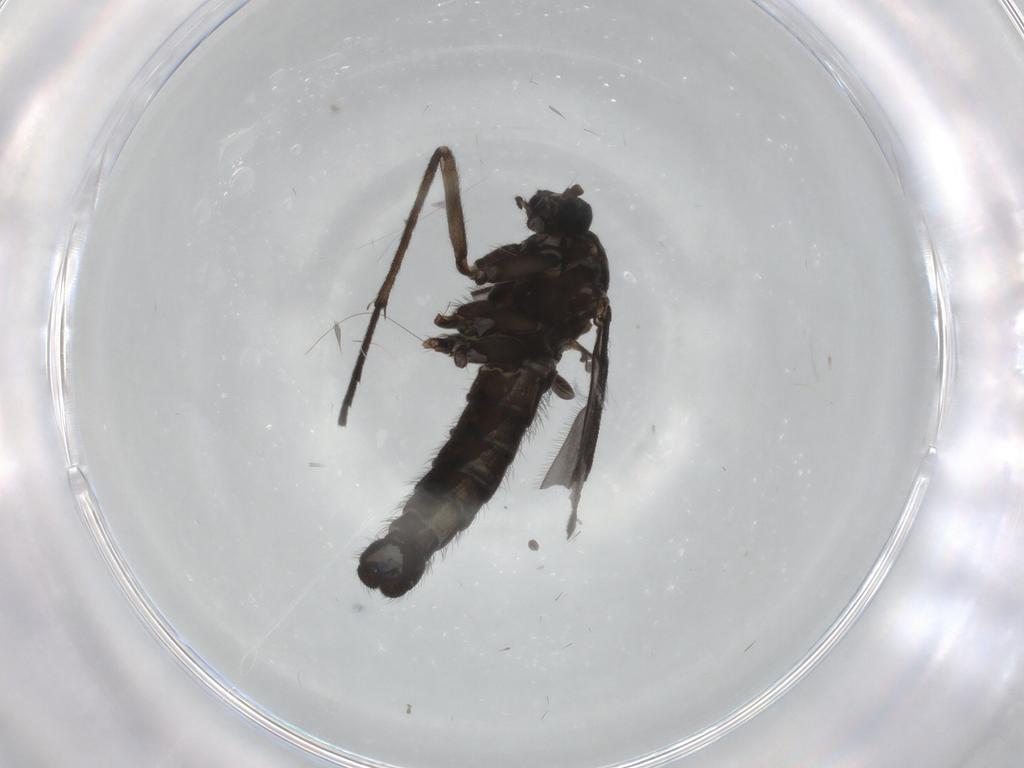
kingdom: Animalia
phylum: Arthropoda
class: Insecta
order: Diptera
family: Sciaridae
